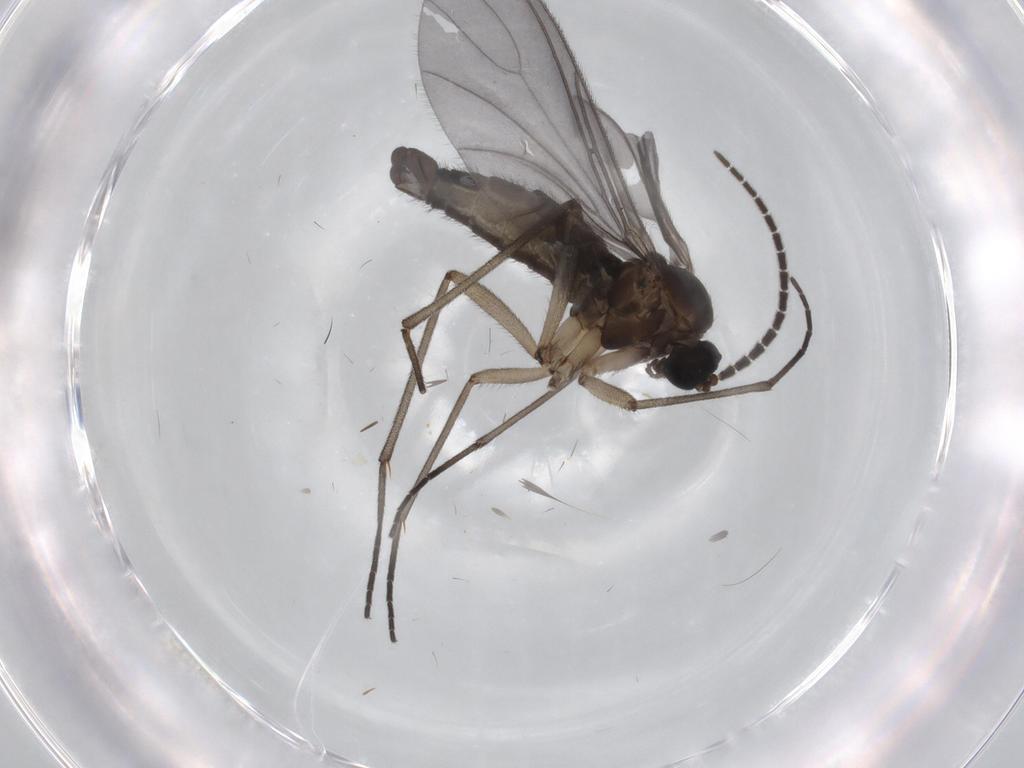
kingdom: Animalia
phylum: Arthropoda
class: Insecta
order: Diptera
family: Sciaridae
